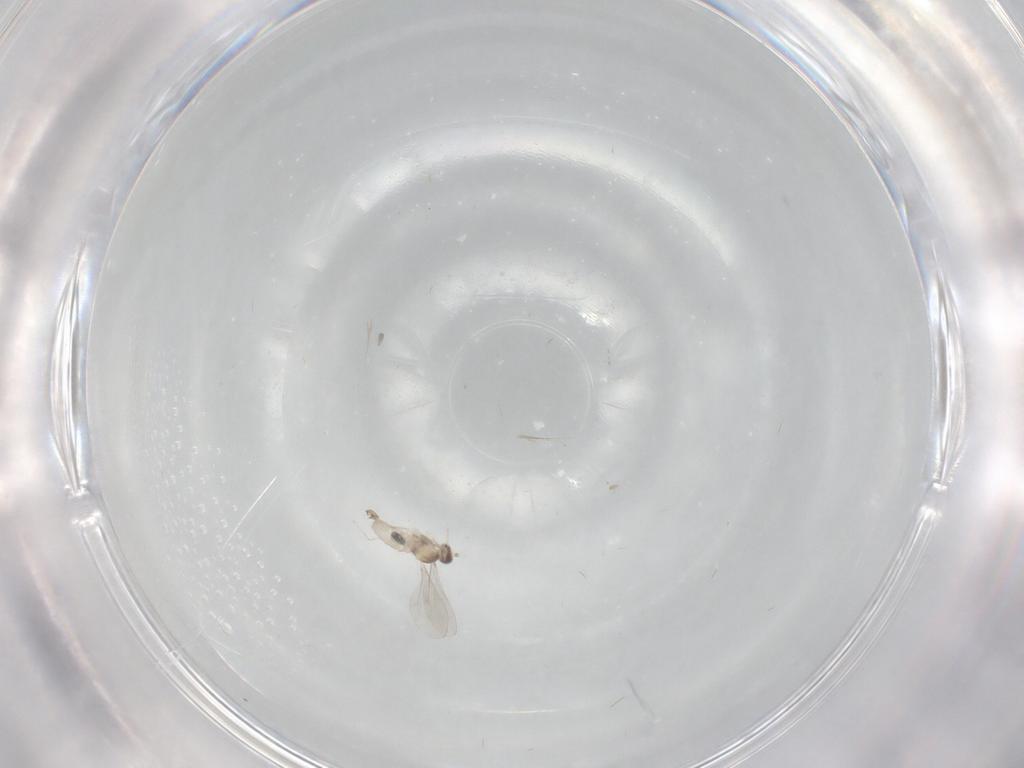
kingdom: Animalia
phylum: Arthropoda
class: Insecta
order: Diptera
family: Cecidomyiidae
